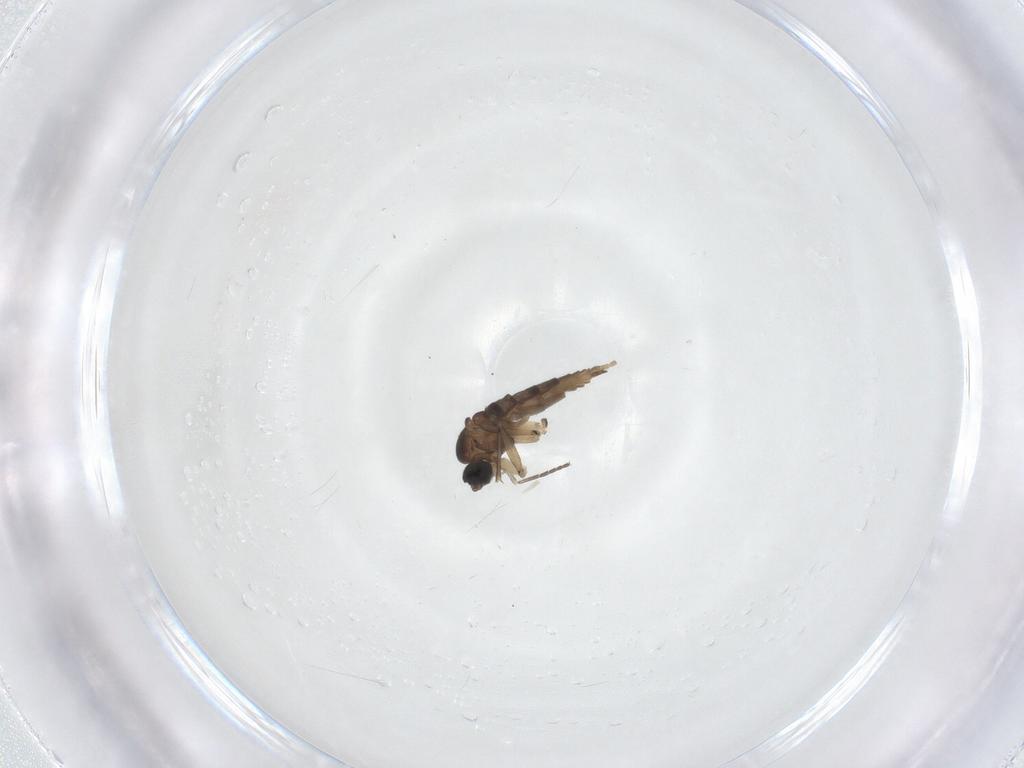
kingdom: Animalia
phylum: Arthropoda
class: Insecta
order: Diptera
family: Sciaridae
